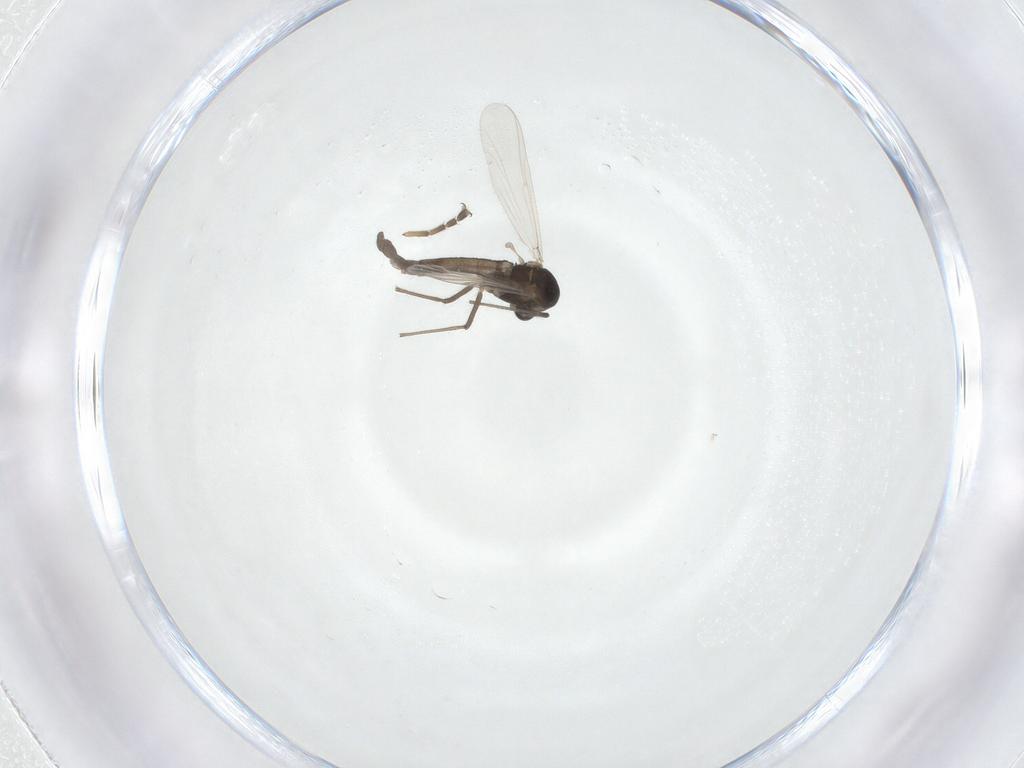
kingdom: Animalia
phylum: Arthropoda
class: Insecta
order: Diptera
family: Chironomidae
